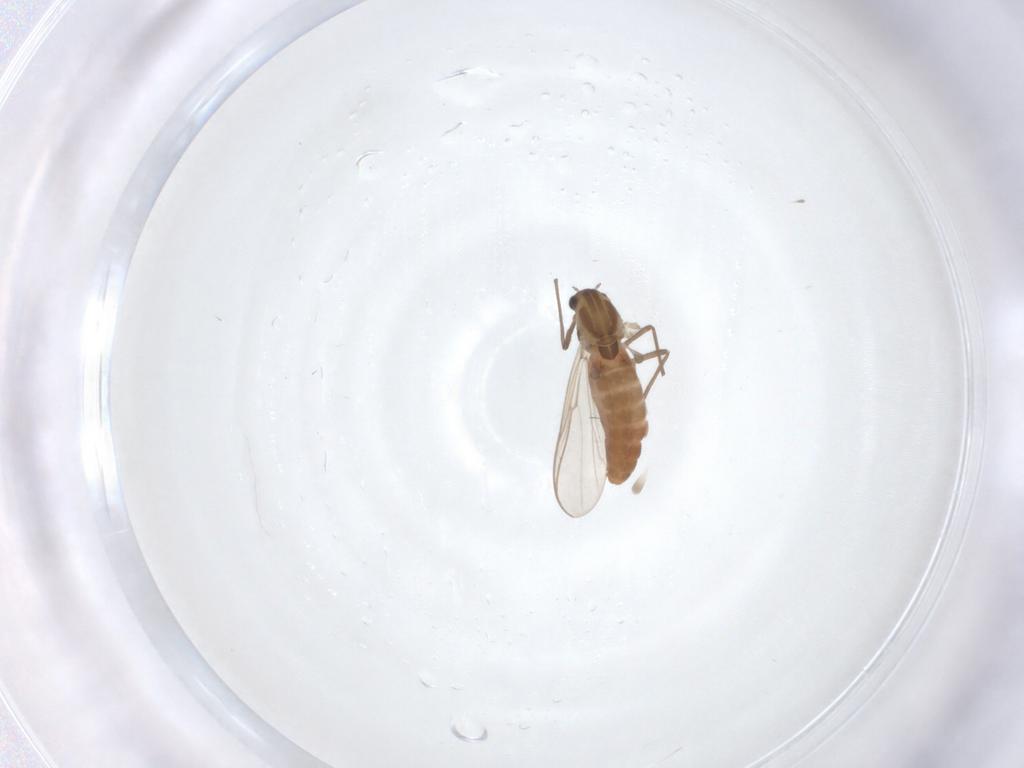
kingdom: Animalia
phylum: Arthropoda
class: Insecta
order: Diptera
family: Chironomidae
